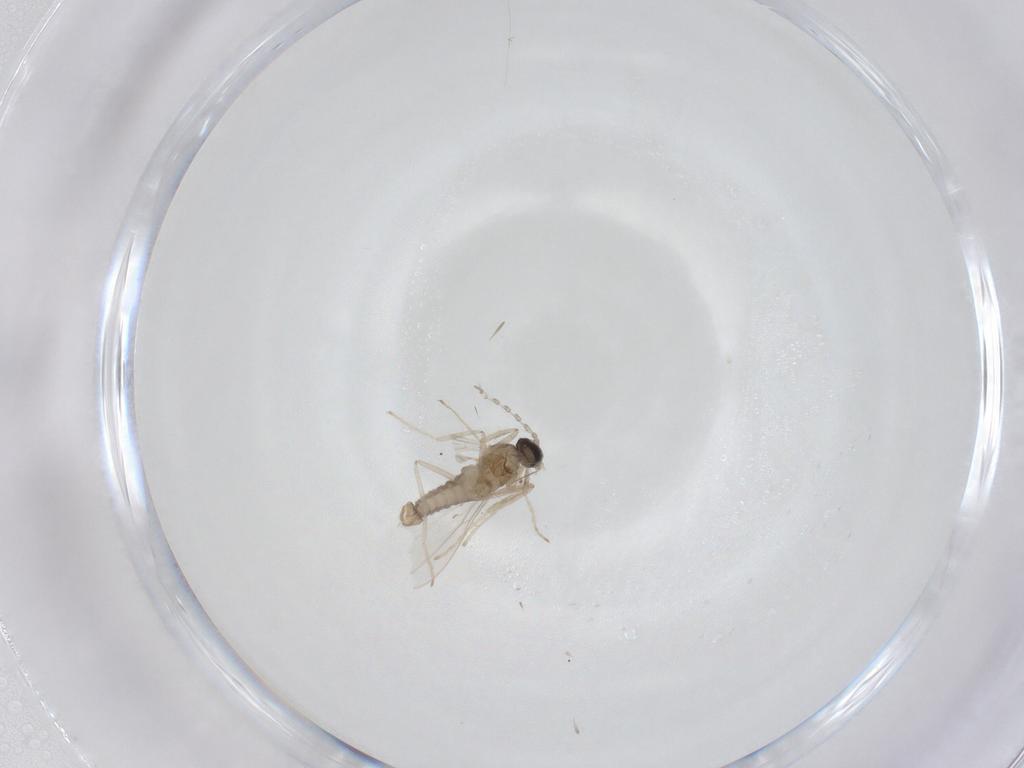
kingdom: Animalia
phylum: Arthropoda
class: Insecta
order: Diptera
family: Cecidomyiidae
